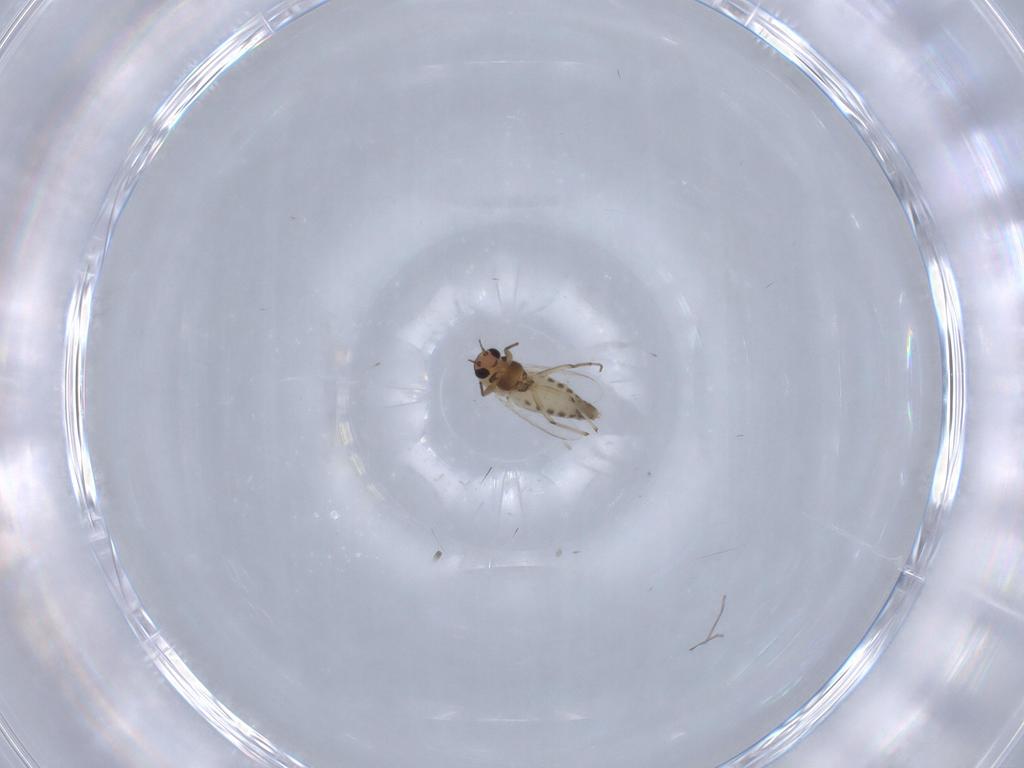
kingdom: Animalia
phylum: Arthropoda
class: Insecta
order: Diptera
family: Chironomidae
